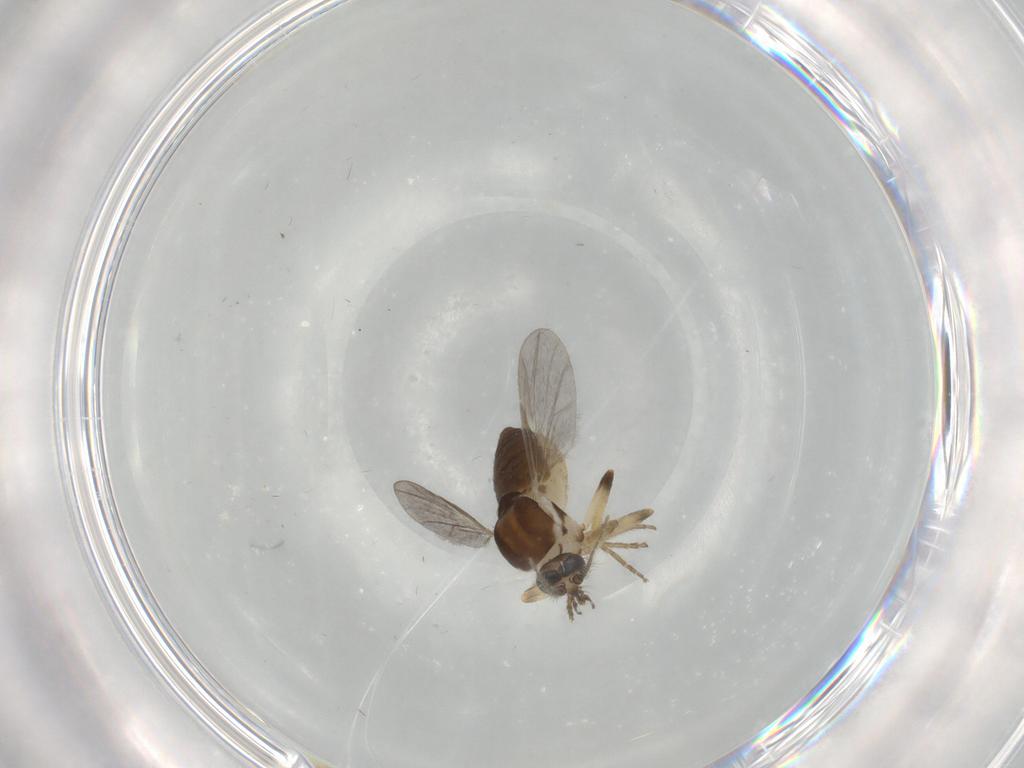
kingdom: Animalia
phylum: Arthropoda
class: Insecta
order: Diptera
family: Ceratopogonidae
